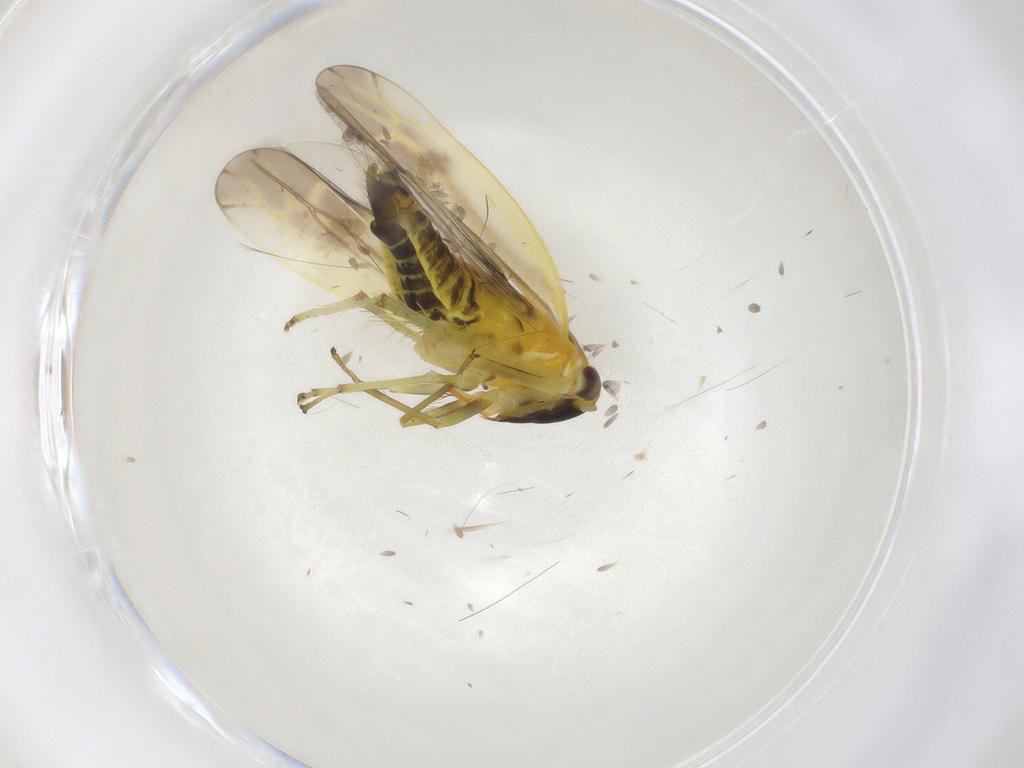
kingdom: Animalia
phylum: Arthropoda
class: Insecta
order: Hemiptera
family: Cicadellidae
